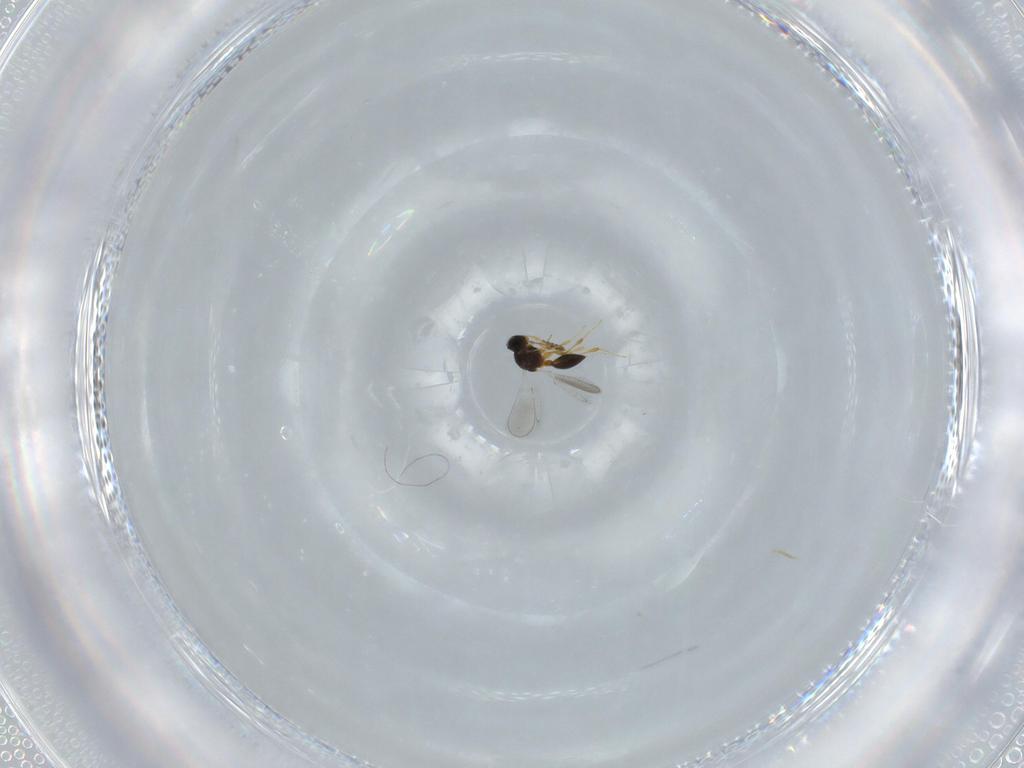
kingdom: Animalia
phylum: Arthropoda
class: Insecta
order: Hymenoptera
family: Platygastridae
